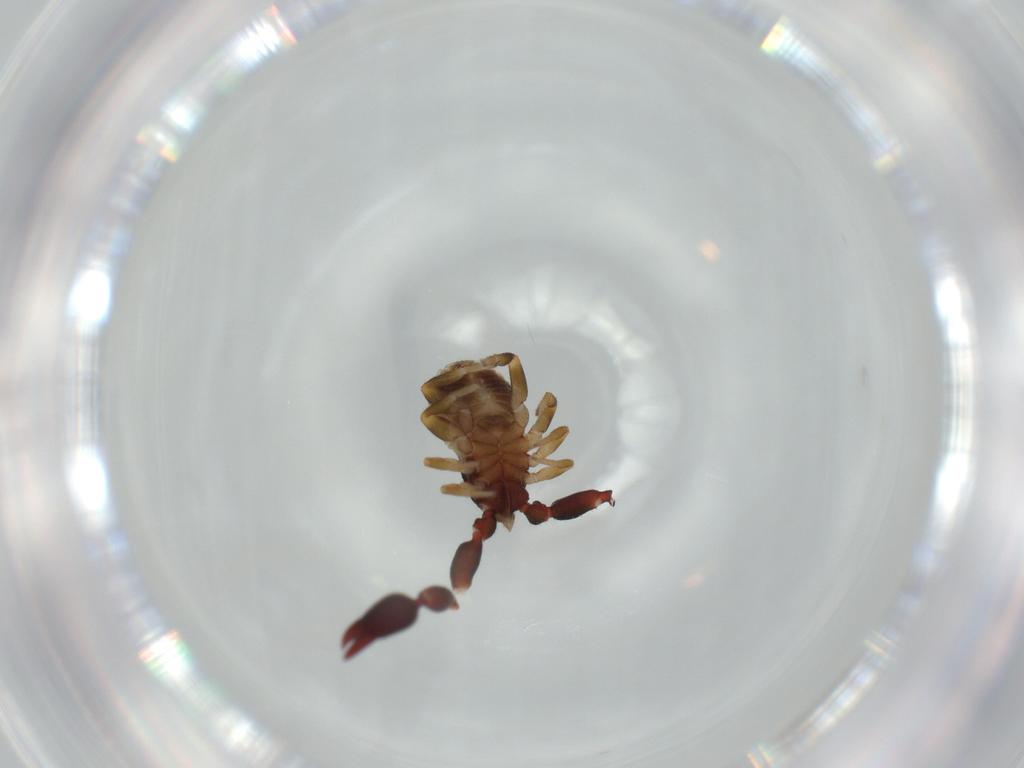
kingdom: Animalia
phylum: Arthropoda
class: Arachnida
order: Pseudoscorpiones
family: Chernetidae
